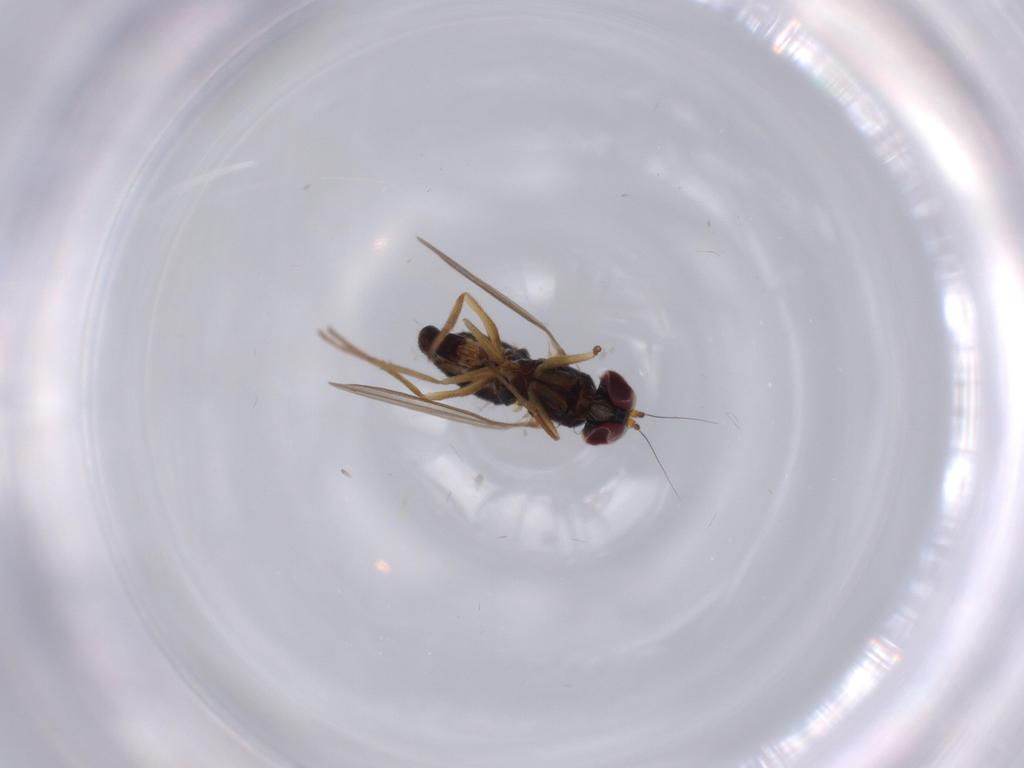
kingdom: Animalia
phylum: Arthropoda
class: Insecta
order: Diptera
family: Dolichopodidae
